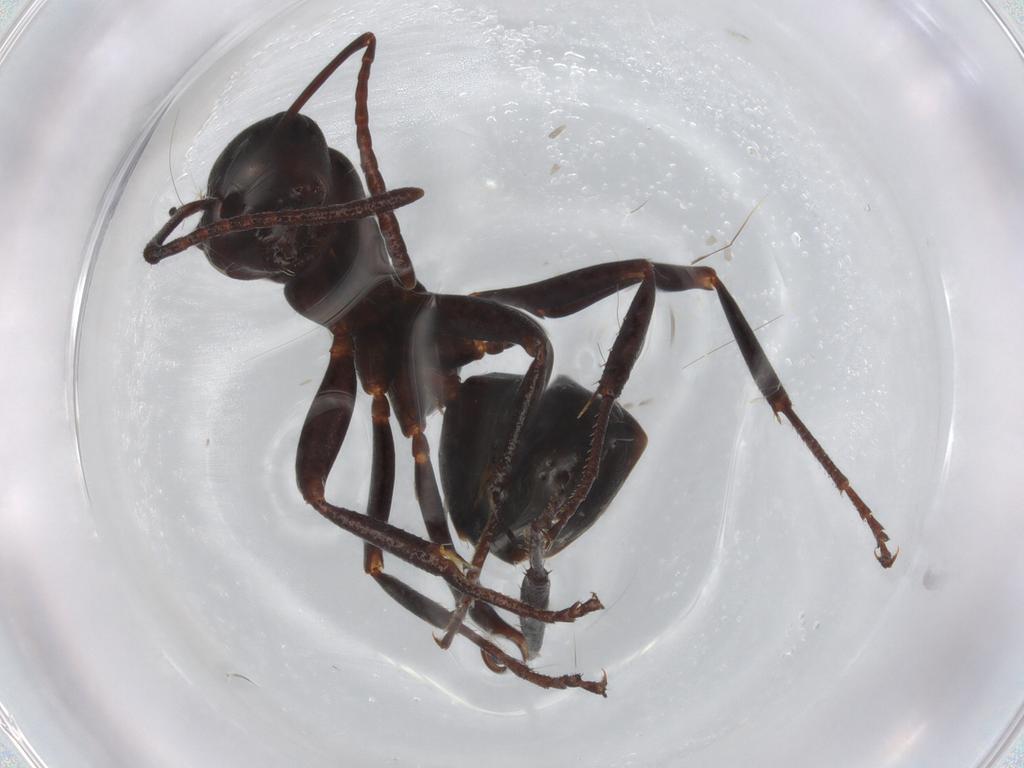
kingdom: Animalia
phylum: Arthropoda
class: Insecta
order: Hymenoptera
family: Formicidae
